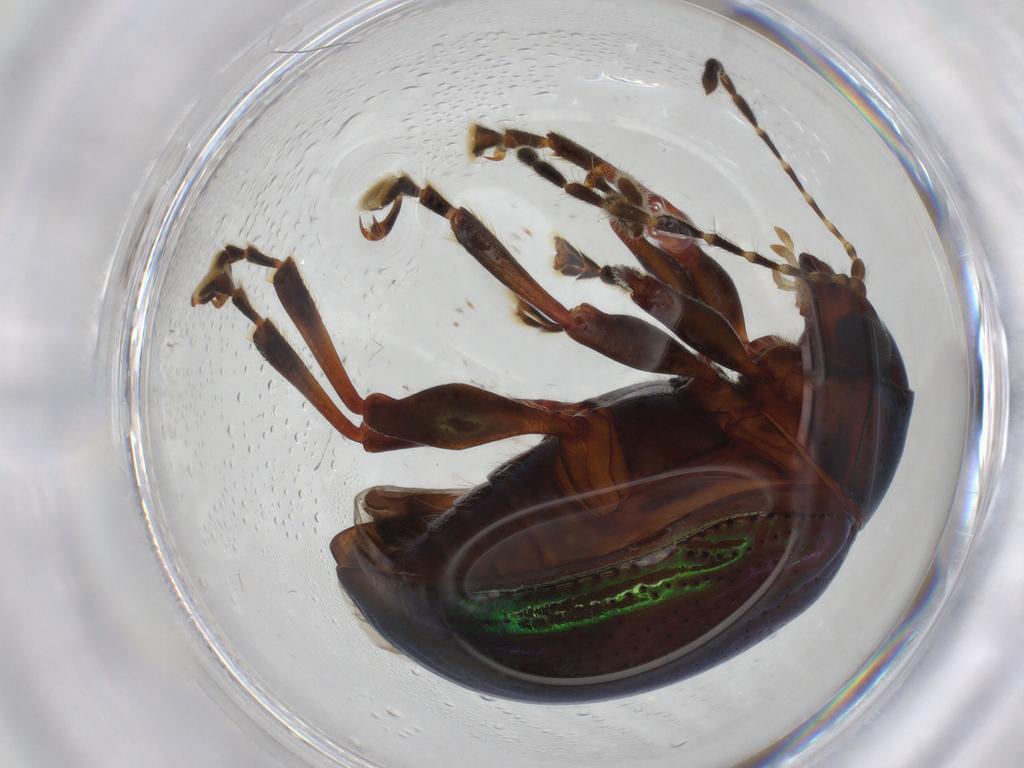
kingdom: Animalia
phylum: Arthropoda
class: Insecta
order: Coleoptera
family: Chrysomelidae
